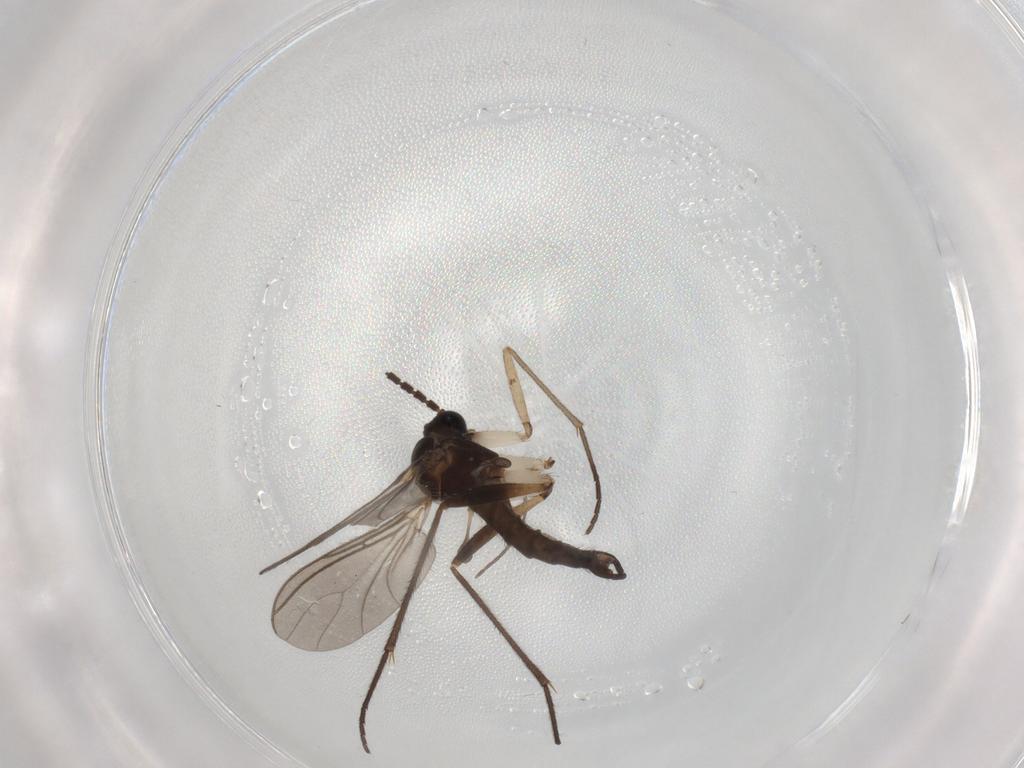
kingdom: Animalia
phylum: Arthropoda
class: Insecta
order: Diptera
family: Sciaridae
